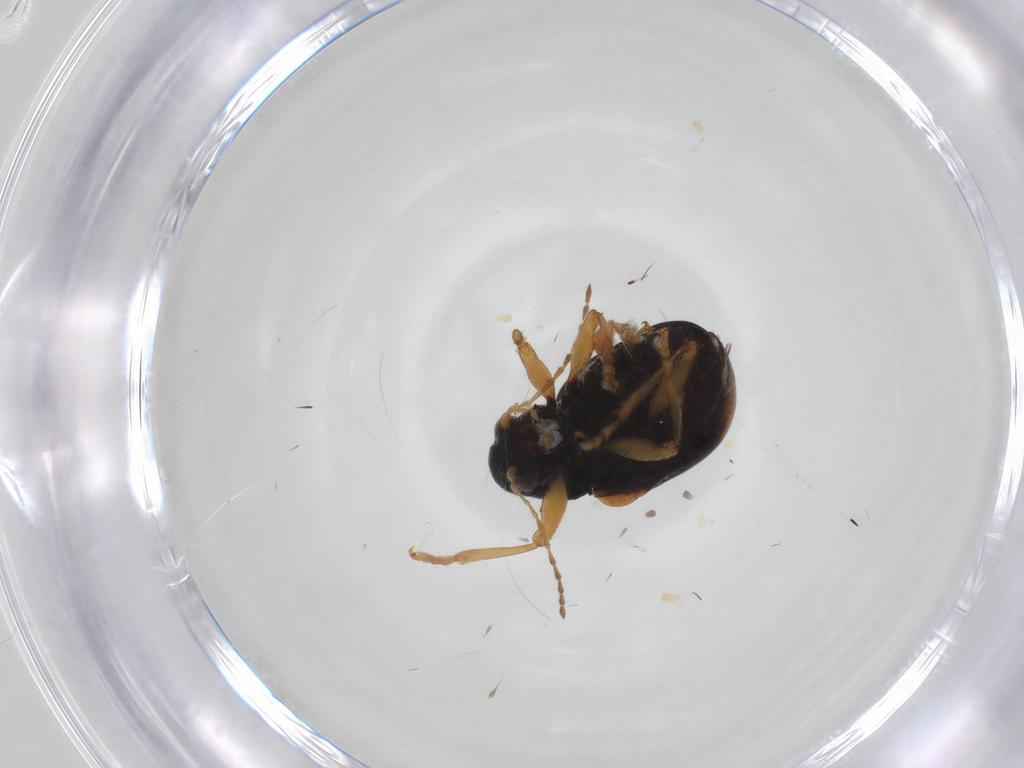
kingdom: Animalia
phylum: Arthropoda
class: Insecta
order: Coleoptera
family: Chrysomelidae
